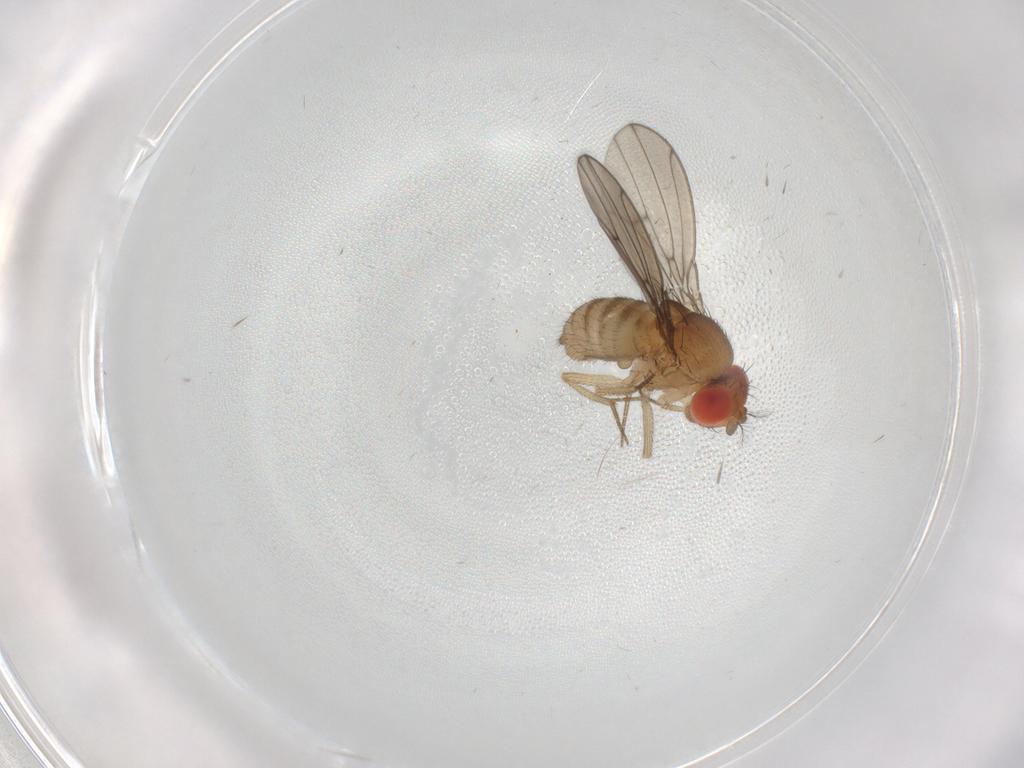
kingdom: Animalia
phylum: Arthropoda
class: Insecta
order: Diptera
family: Drosophilidae
